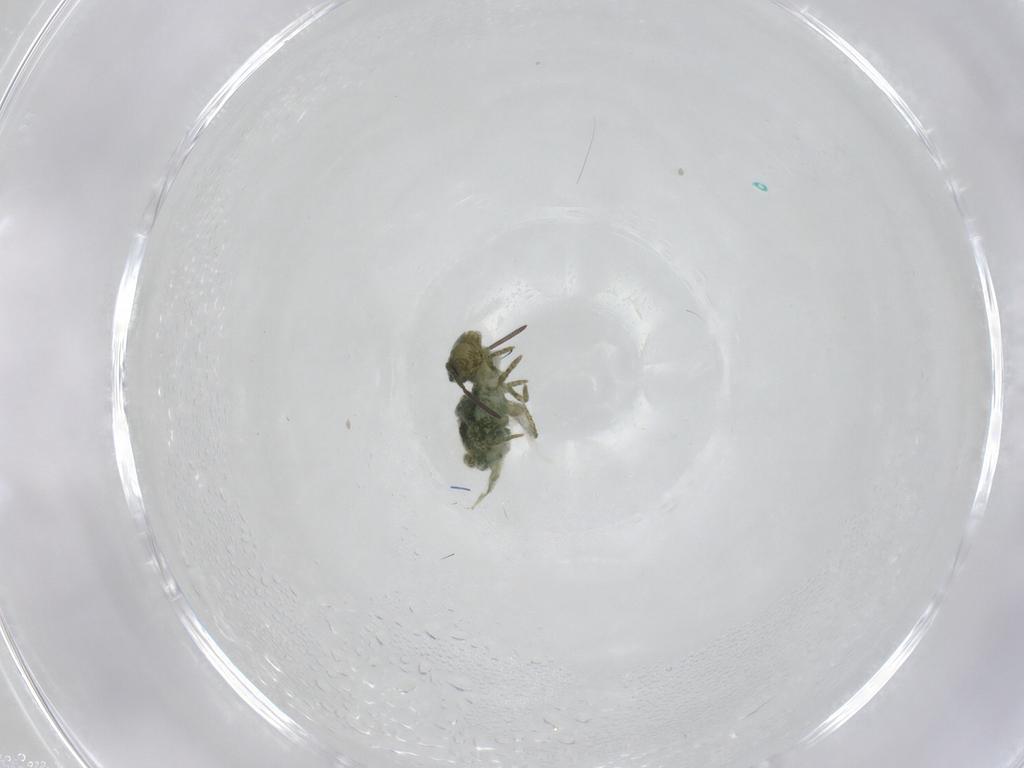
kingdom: Animalia
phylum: Arthropoda
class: Collembola
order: Symphypleona
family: Sminthuridae
